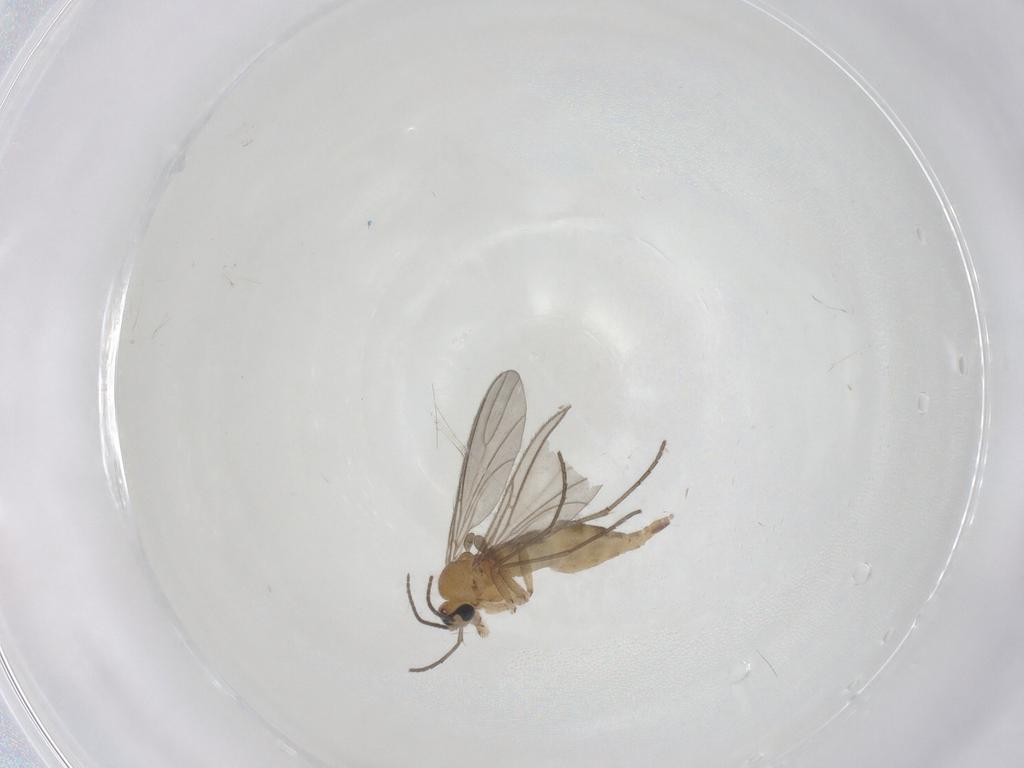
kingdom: Animalia
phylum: Arthropoda
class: Insecta
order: Diptera
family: Sciaridae
